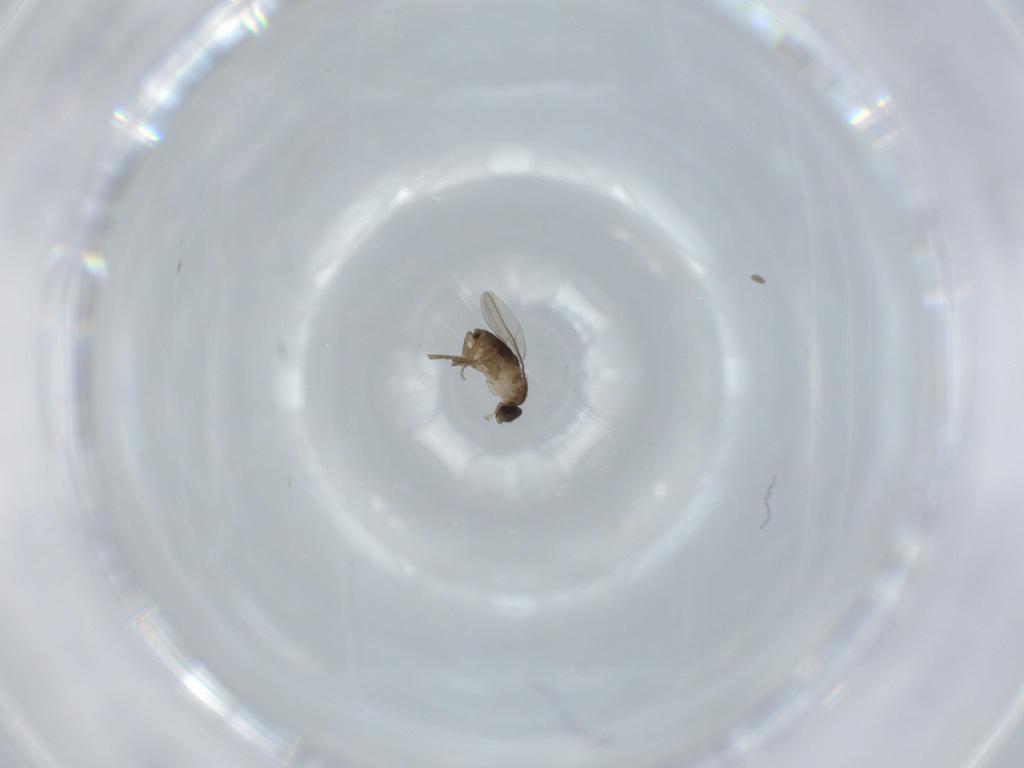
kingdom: Animalia
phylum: Arthropoda
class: Insecta
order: Diptera
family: Phoridae
